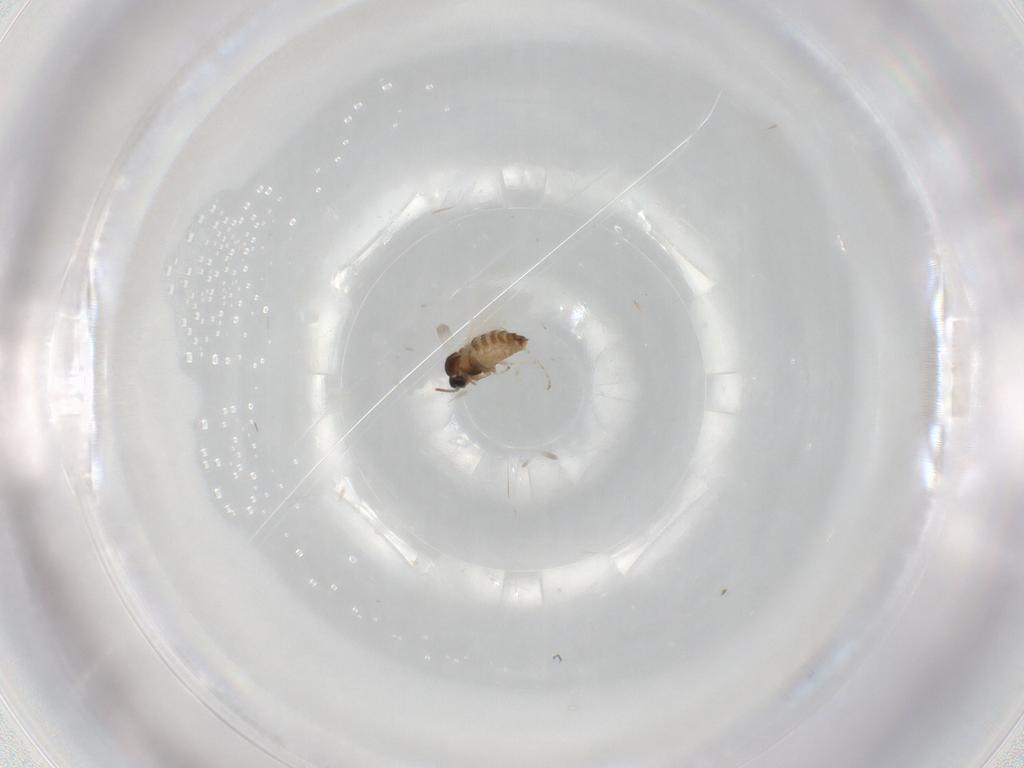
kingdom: Animalia
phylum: Arthropoda
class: Insecta
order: Diptera
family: Cecidomyiidae
